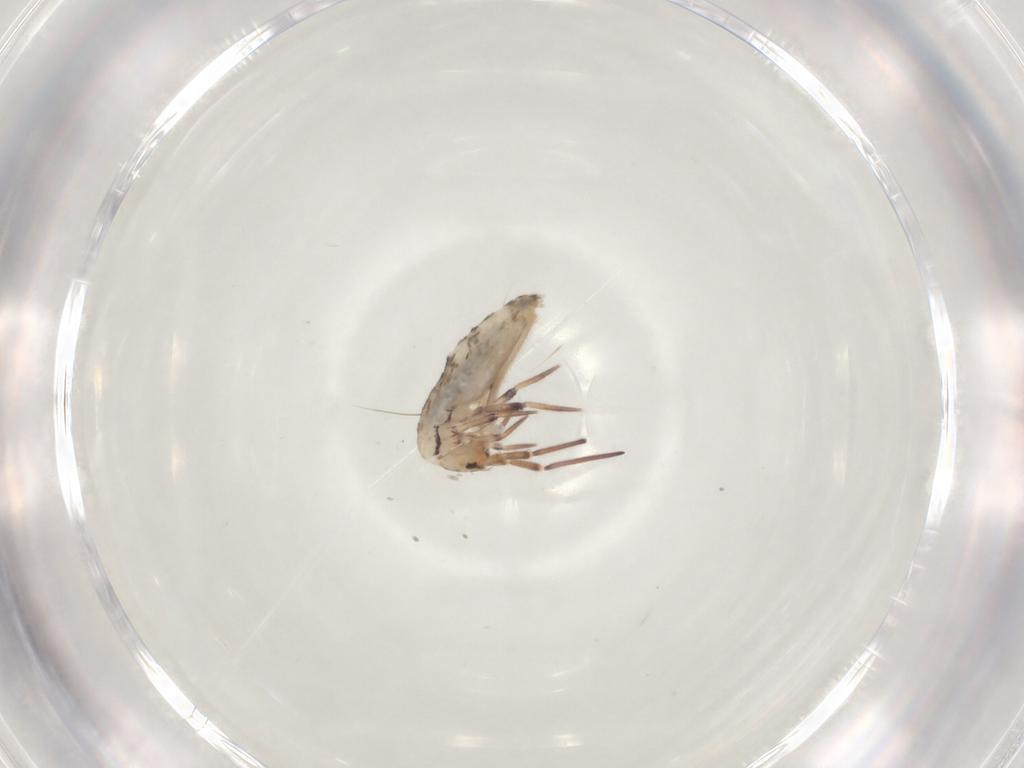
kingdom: Animalia
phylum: Arthropoda
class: Collembola
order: Entomobryomorpha
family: Entomobryidae
